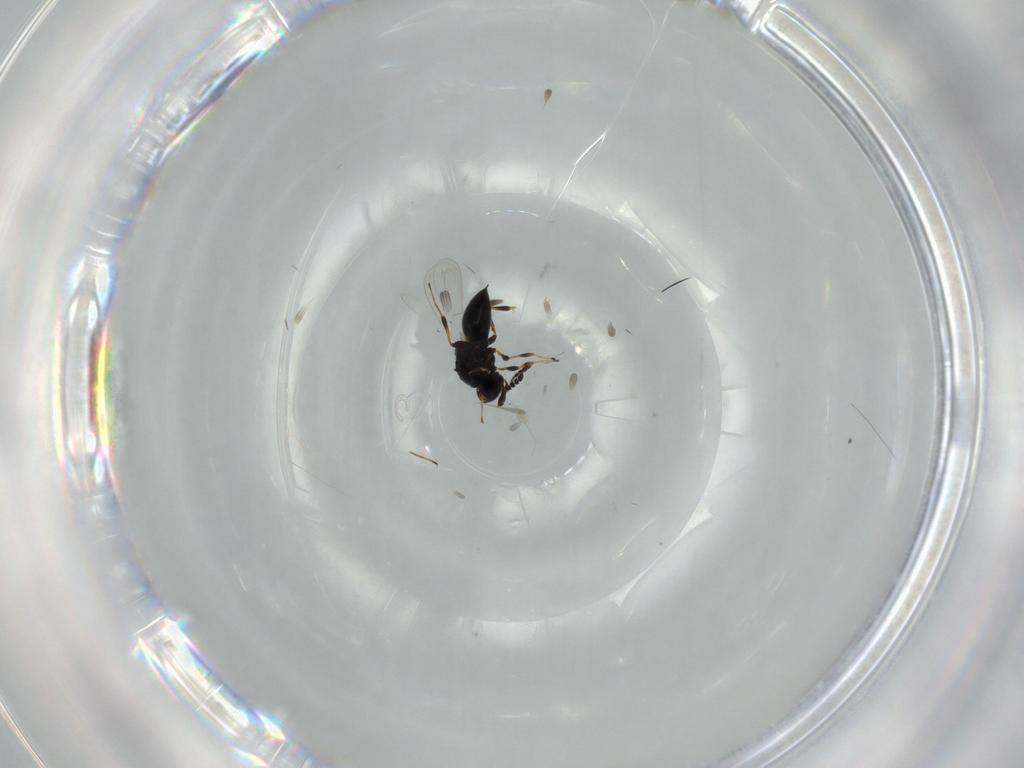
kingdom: Animalia
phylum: Arthropoda
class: Insecta
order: Hymenoptera
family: Platygastridae
